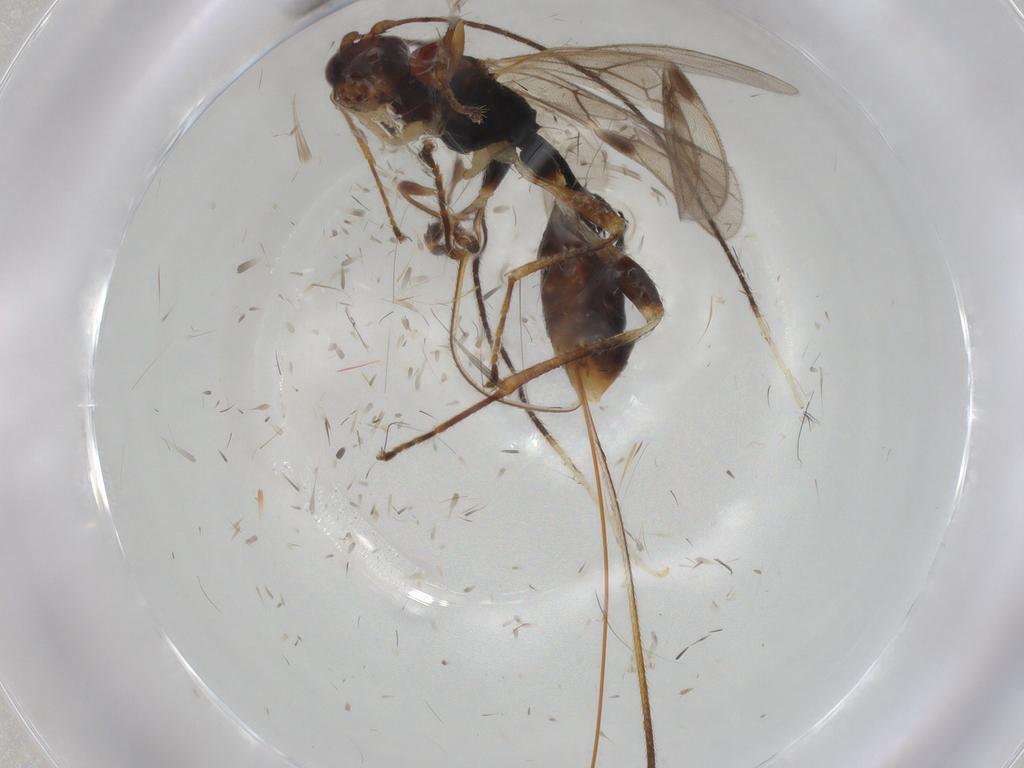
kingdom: Animalia
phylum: Arthropoda
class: Insecta
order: Hymenoptera
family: Braconidae
